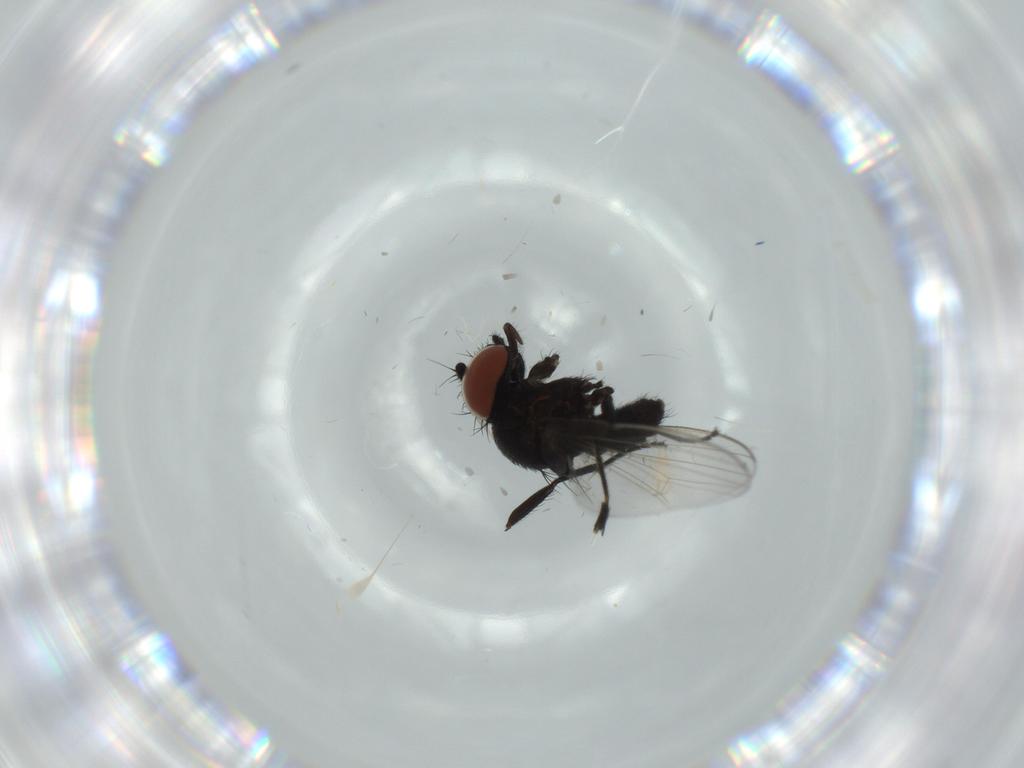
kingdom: Animalia
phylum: Arthropoda
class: Insecta
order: Diptera
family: Milichiidae
